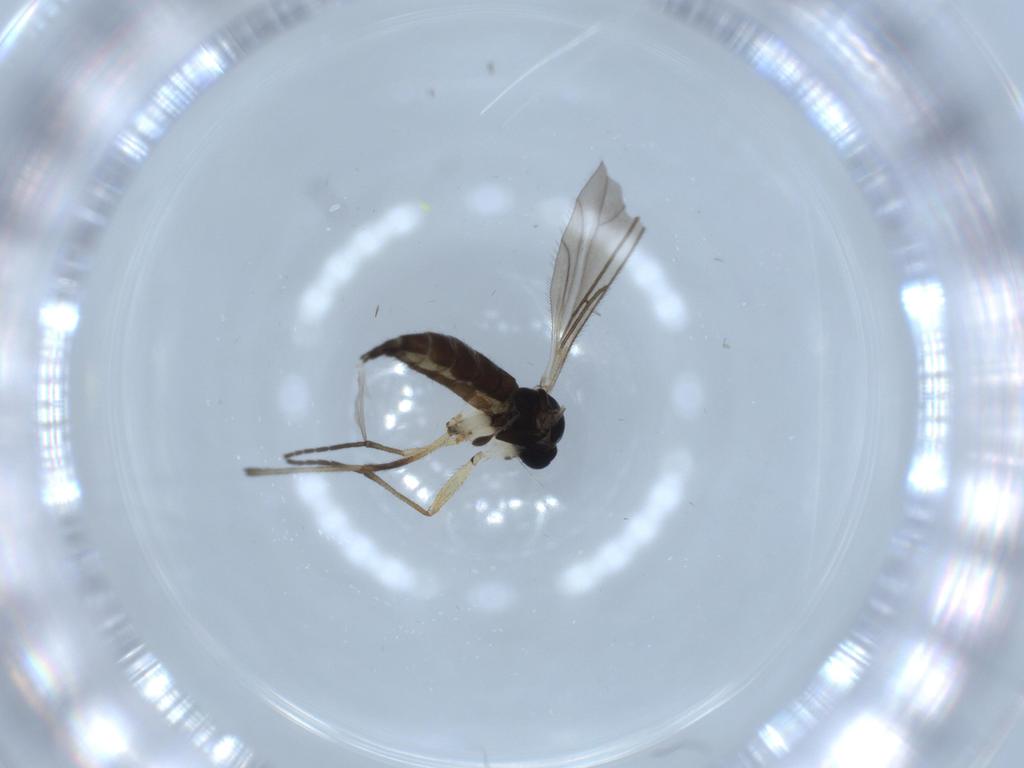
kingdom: Animalia
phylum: Arthropoda
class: Insecta
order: Diptera
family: Sciaridae
